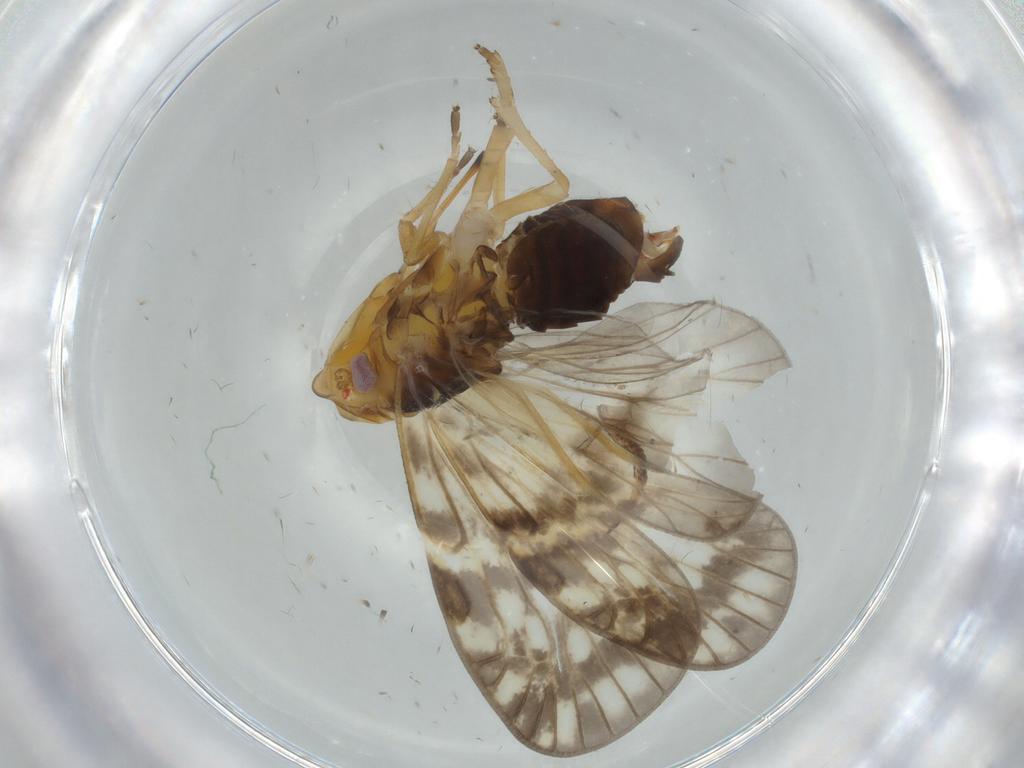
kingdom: Animalia
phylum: Arthropoda
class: Insecta
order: Hemiptera
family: Cixiidae
